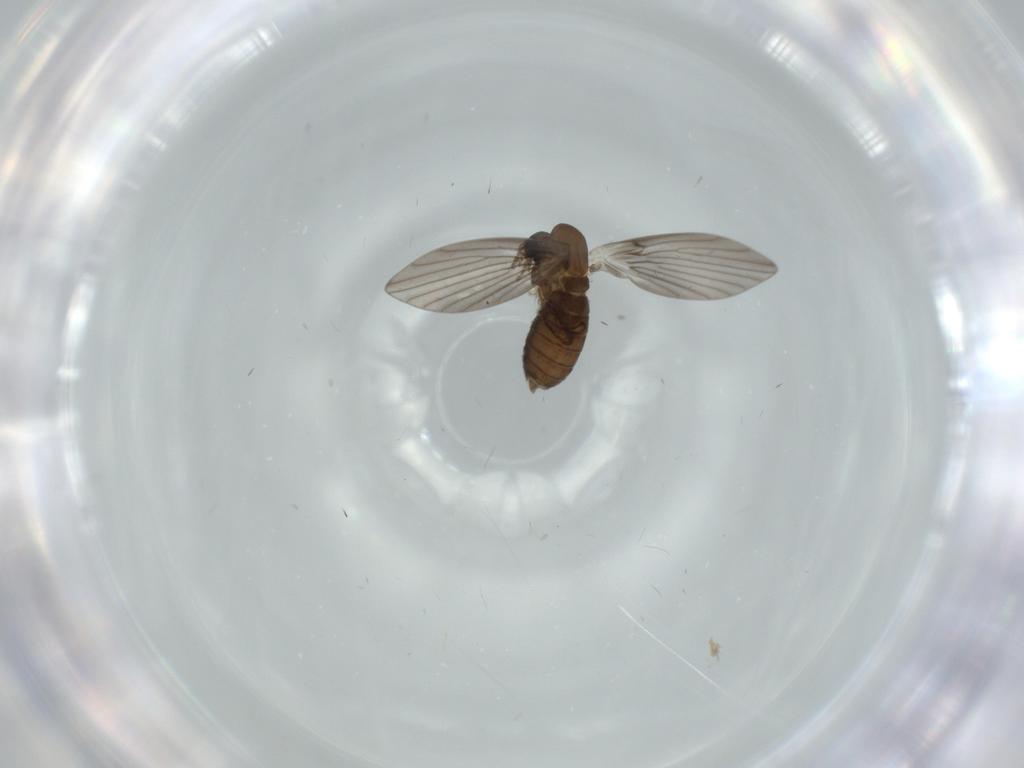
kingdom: Animalia
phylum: Arthropoda
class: Insecta
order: Diptera
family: Psychodidae
